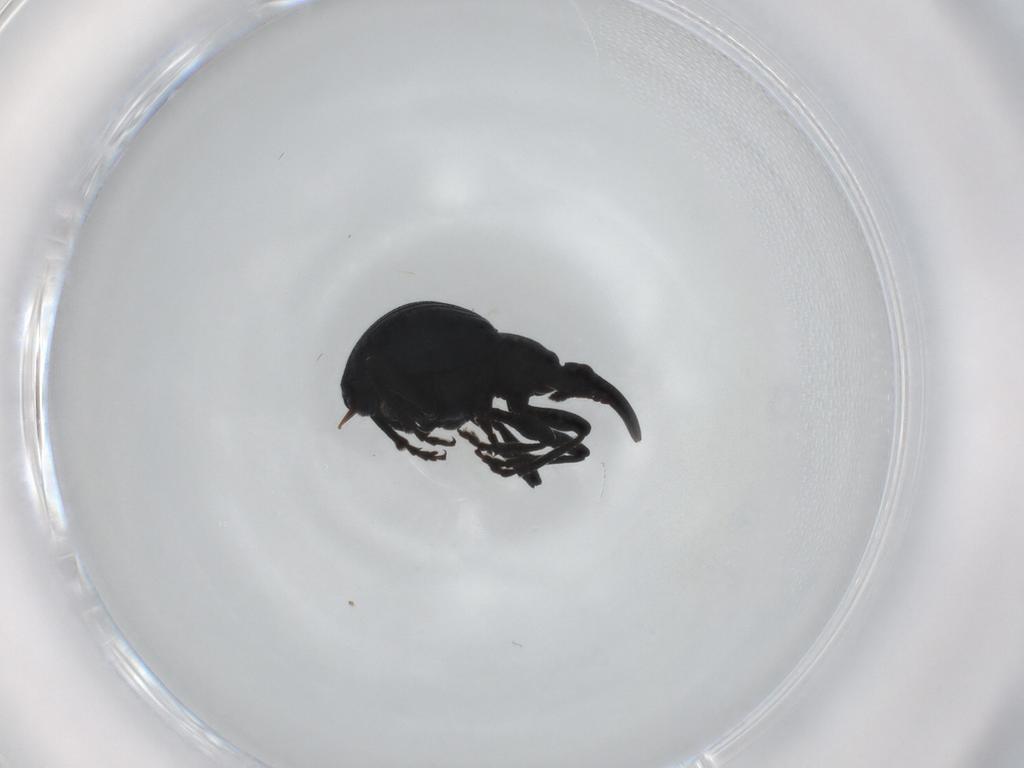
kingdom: Animalia
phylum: Arthropoda
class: Insecta
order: Coleoptera
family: Apionidae
